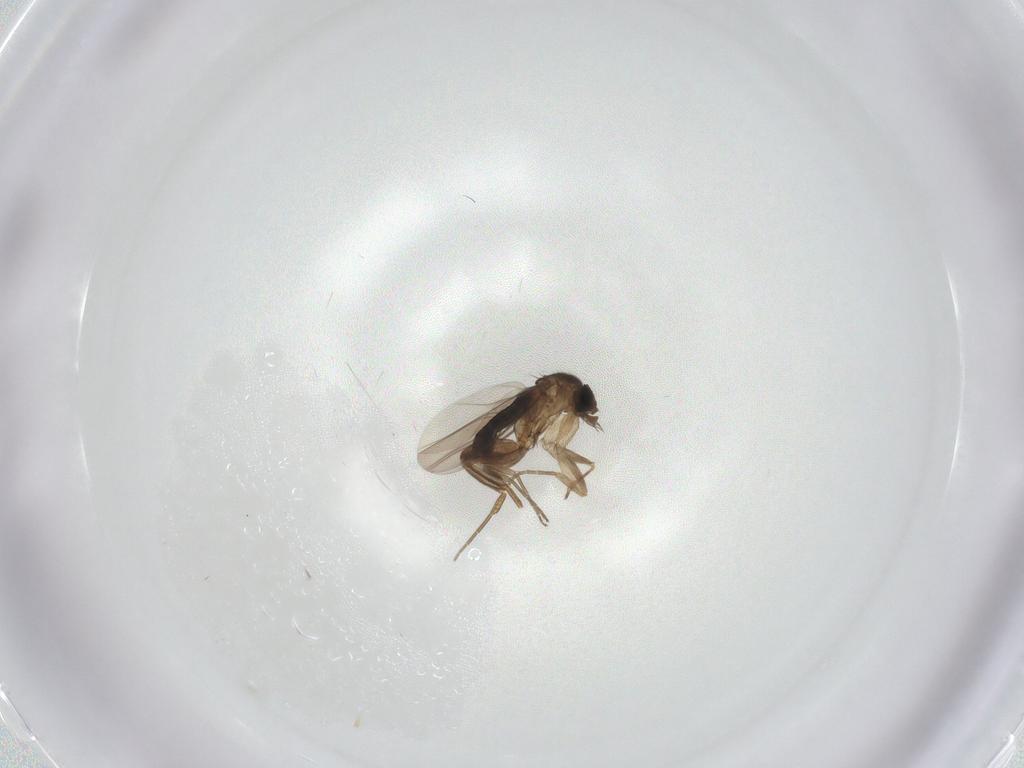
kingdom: Animalia
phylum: Arthropoda
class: Insecta
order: Diptera
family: Phoridae
